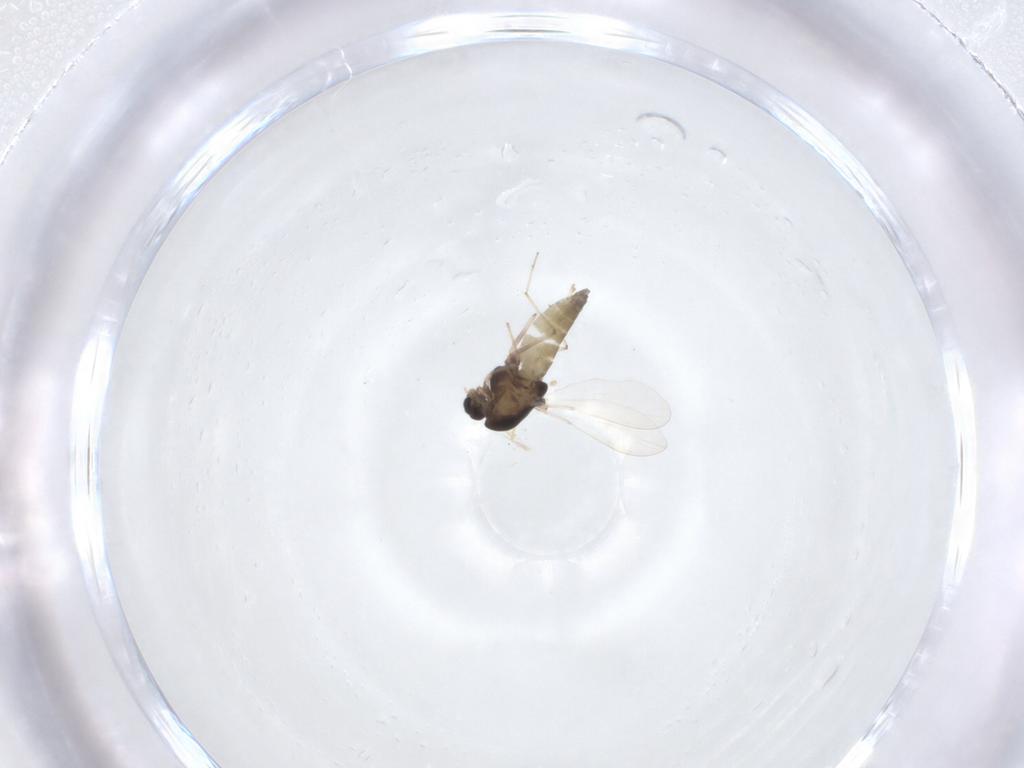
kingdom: Animalia
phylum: Arthropoda
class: Insecta
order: Diptera
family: Chironomidae
